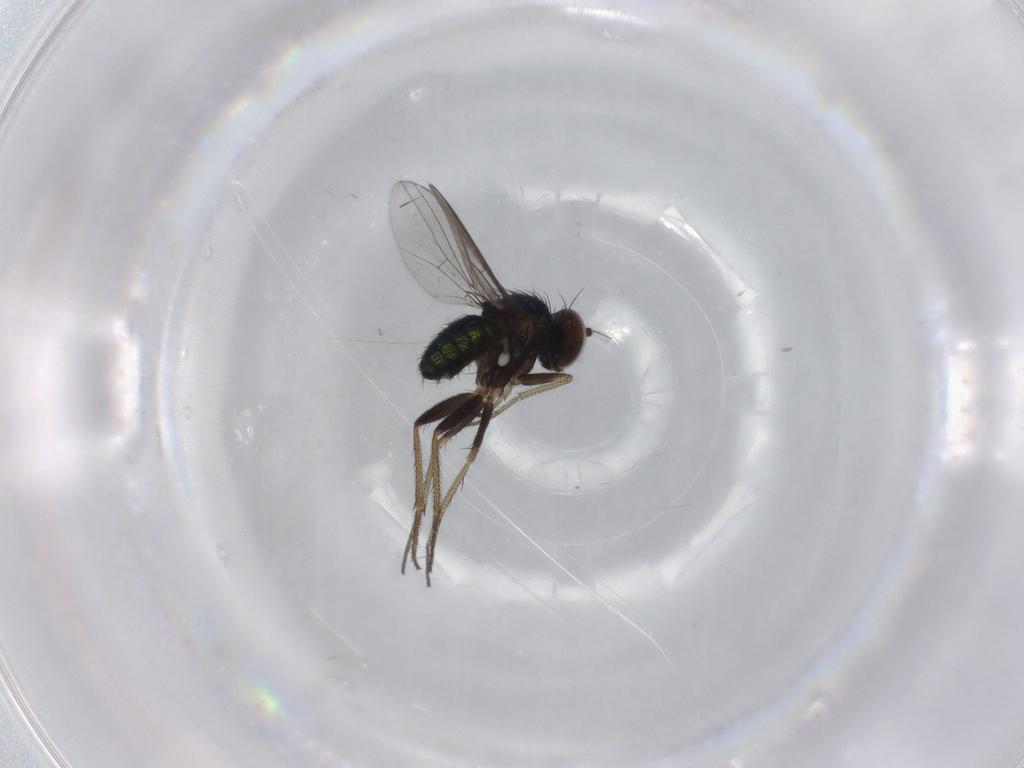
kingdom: Animalia
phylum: Arthropoda
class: Insecta
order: Diptera
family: Chironomidae
